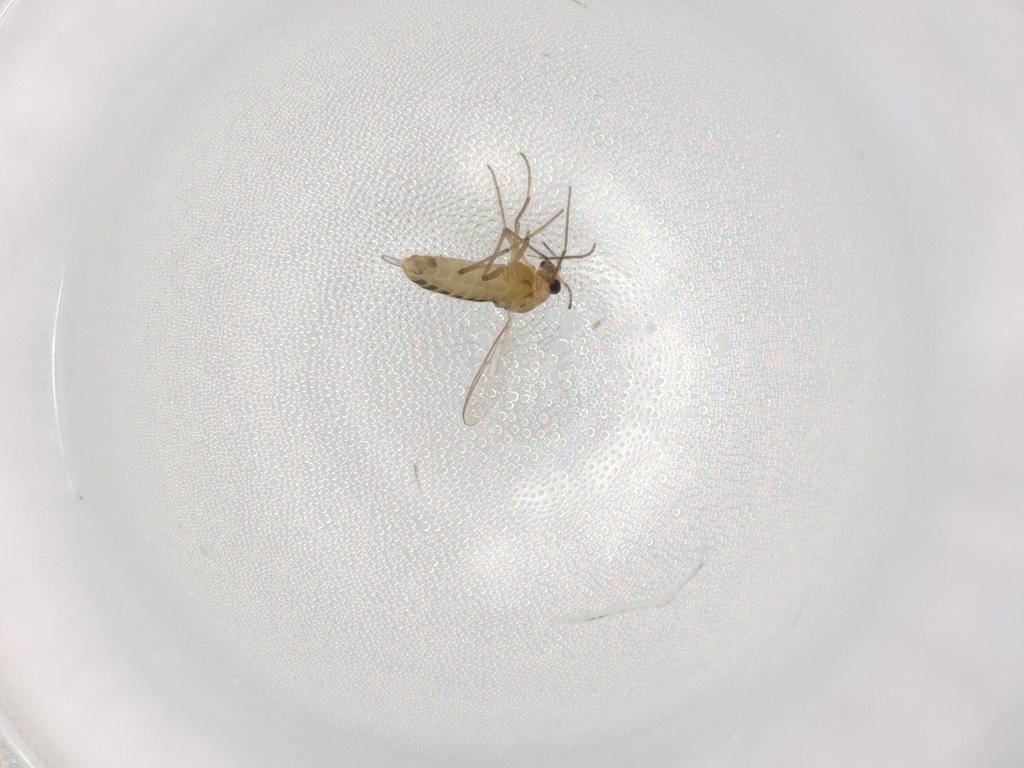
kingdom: Animalia
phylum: Arthropoda
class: Insecta
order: Diptera
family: Chironomidae
